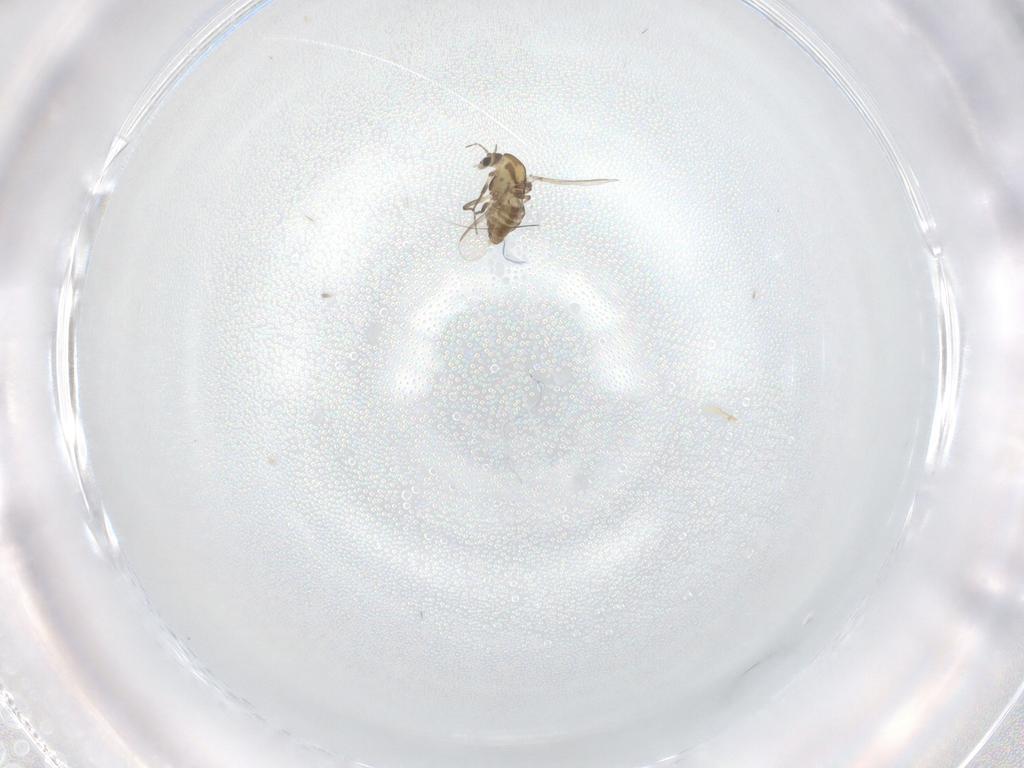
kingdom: Animalia
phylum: Arthropoda
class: Insecta
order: Diptera
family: Chironomidae
